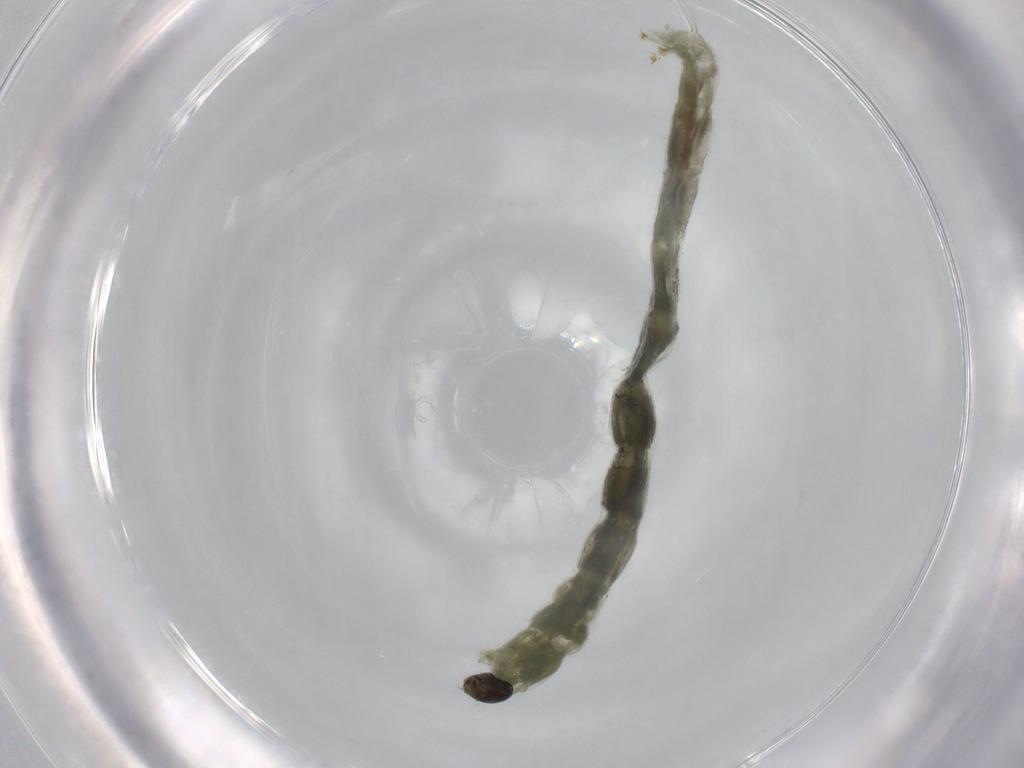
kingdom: Animalia
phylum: Arthropoda
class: Insecta
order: Diptera
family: Tipulidae
